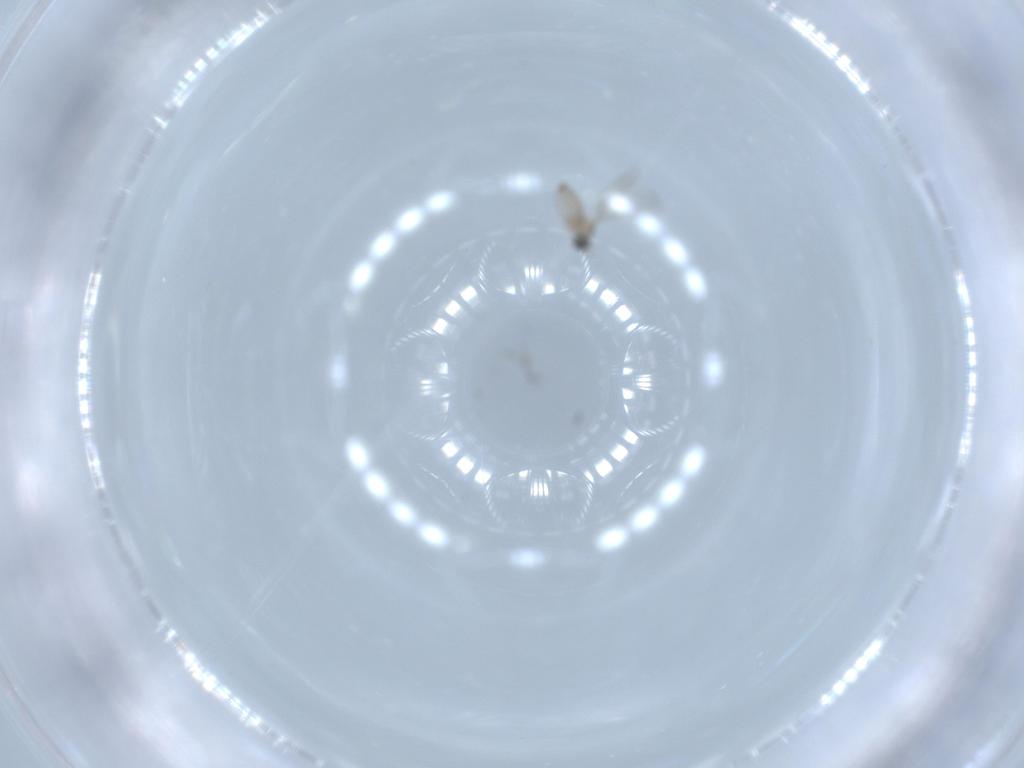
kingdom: Animalia
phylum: Arthropoda
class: Insecta
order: Diptera
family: Cecidomyiidae
